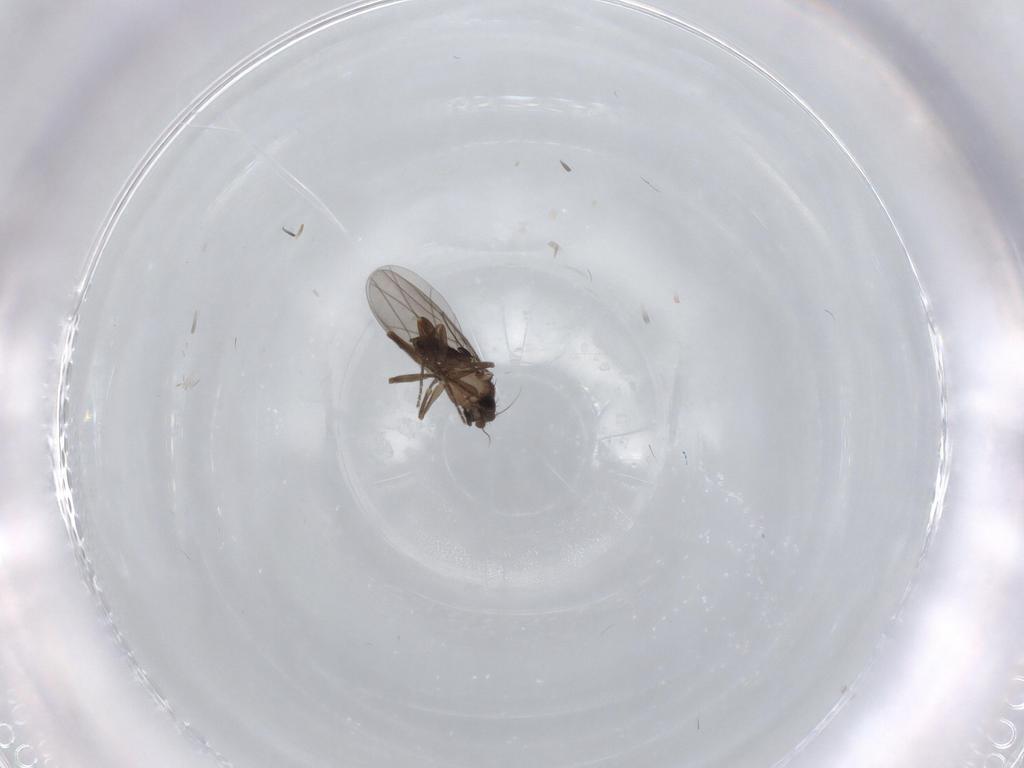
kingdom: Animalia
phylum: Arthropoda
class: Insecta
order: Diptera
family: Phoridae
